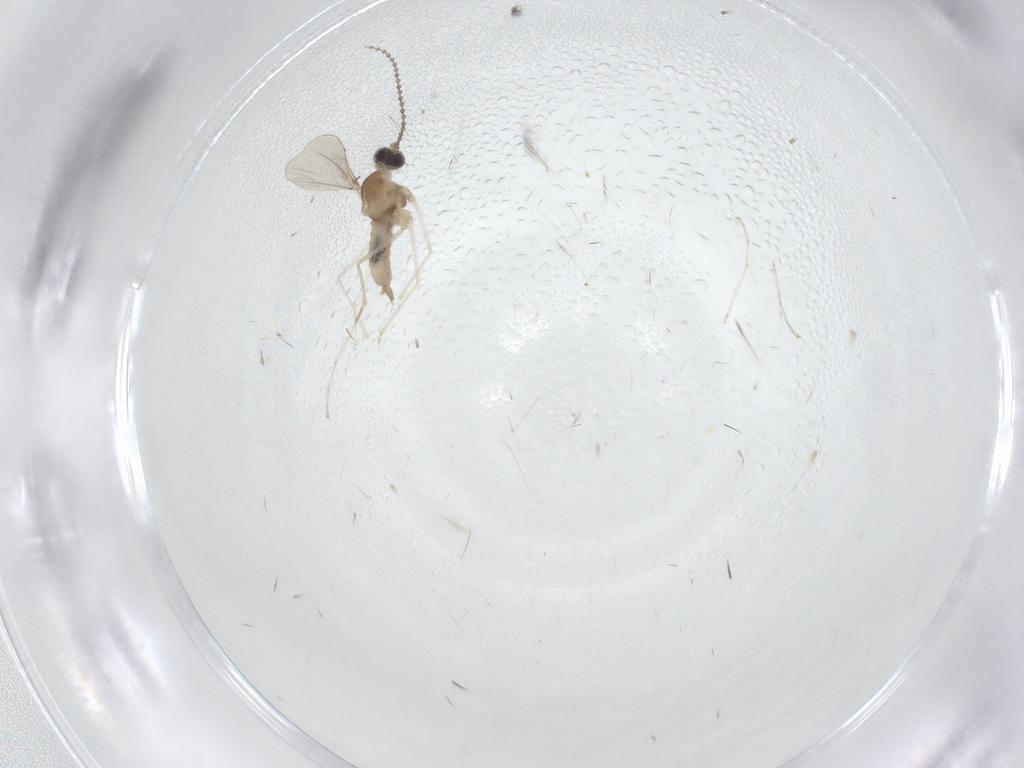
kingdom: Animalia
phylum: Arthropoda
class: Insecta
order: Diptera
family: Cecidomyiidae
